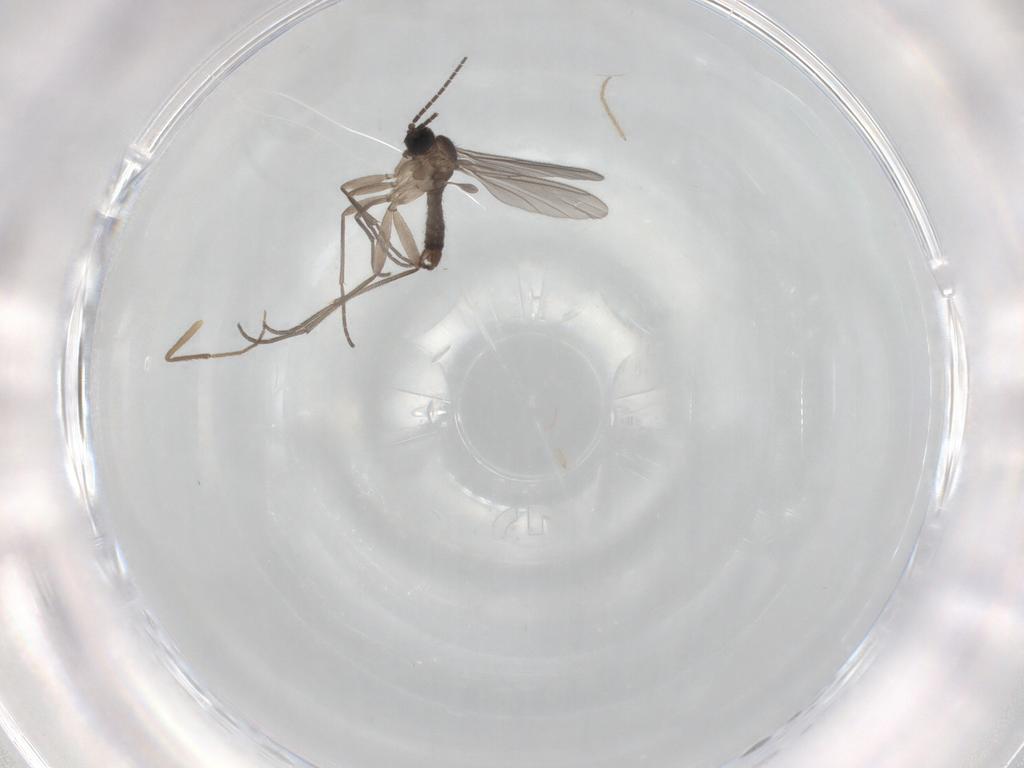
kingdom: Animalia
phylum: Arthropoda
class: Insecta
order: Diptera
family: Sciaridae
